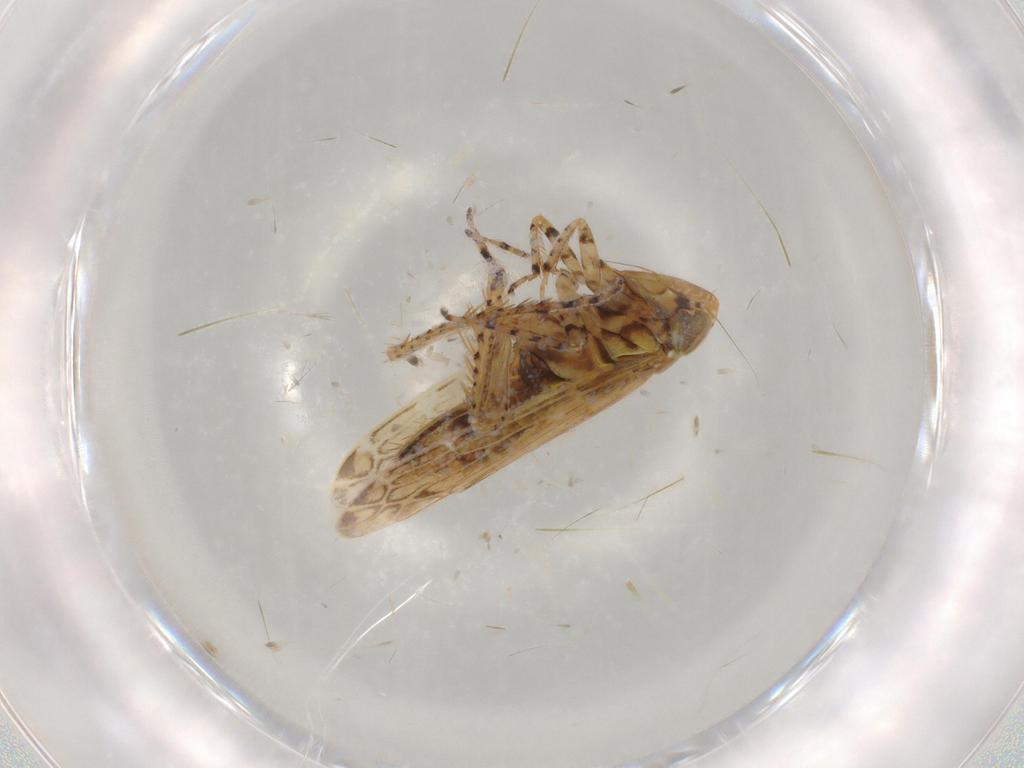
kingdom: Animalia
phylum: Arthropoda
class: Insecta
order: Hemiptera
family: Cicadellidae
